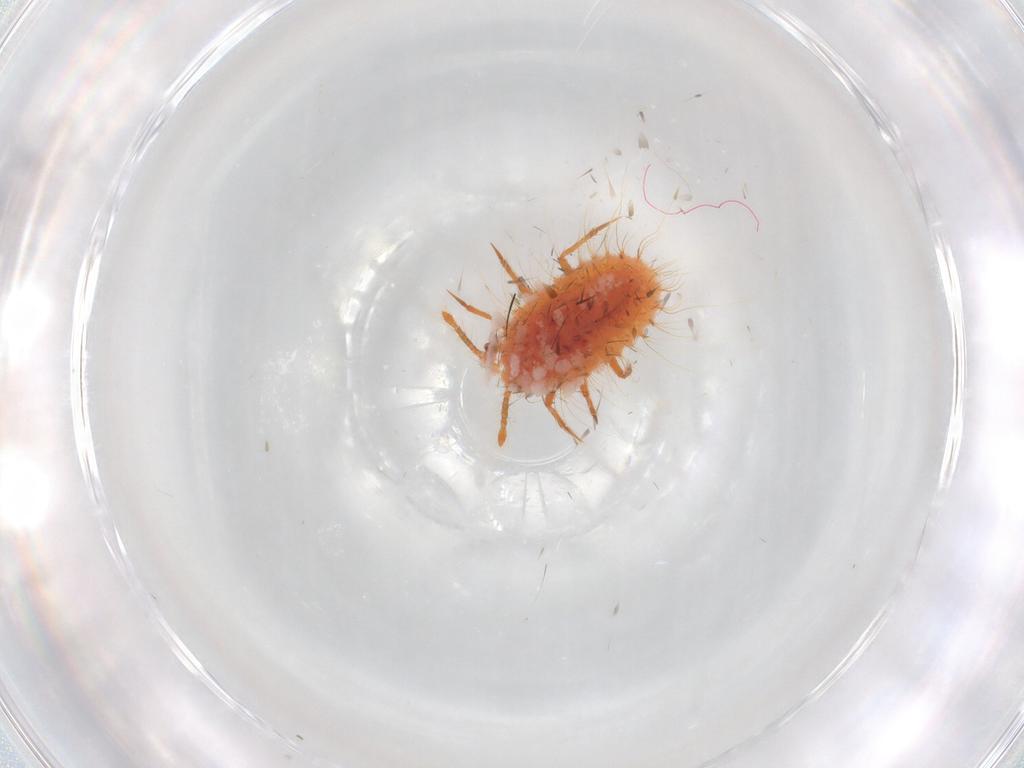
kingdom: Animalia
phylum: Arthropoda
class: Insecta
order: Hemiptera
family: Coccoidea_incertae_sedis
